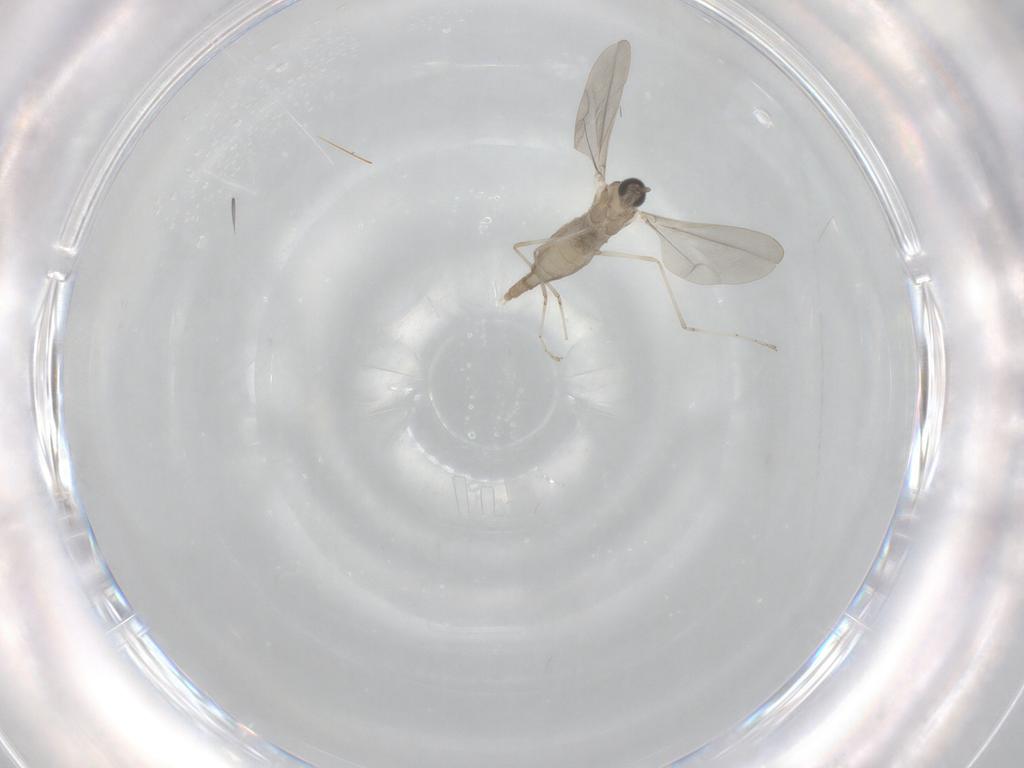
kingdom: Animalia
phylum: Arthropoda
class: Insecta
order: Diptera
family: Cecidomyiidae
